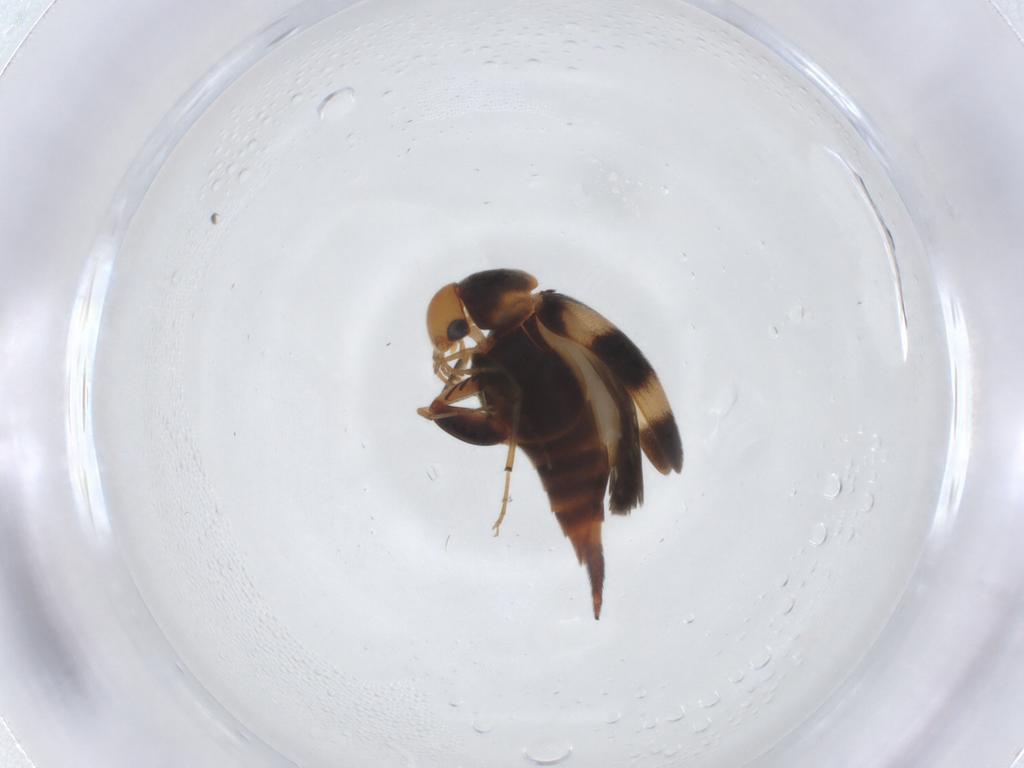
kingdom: Animalia
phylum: Arthropoda
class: Insecta
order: Coleoptera
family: Mordellidae
